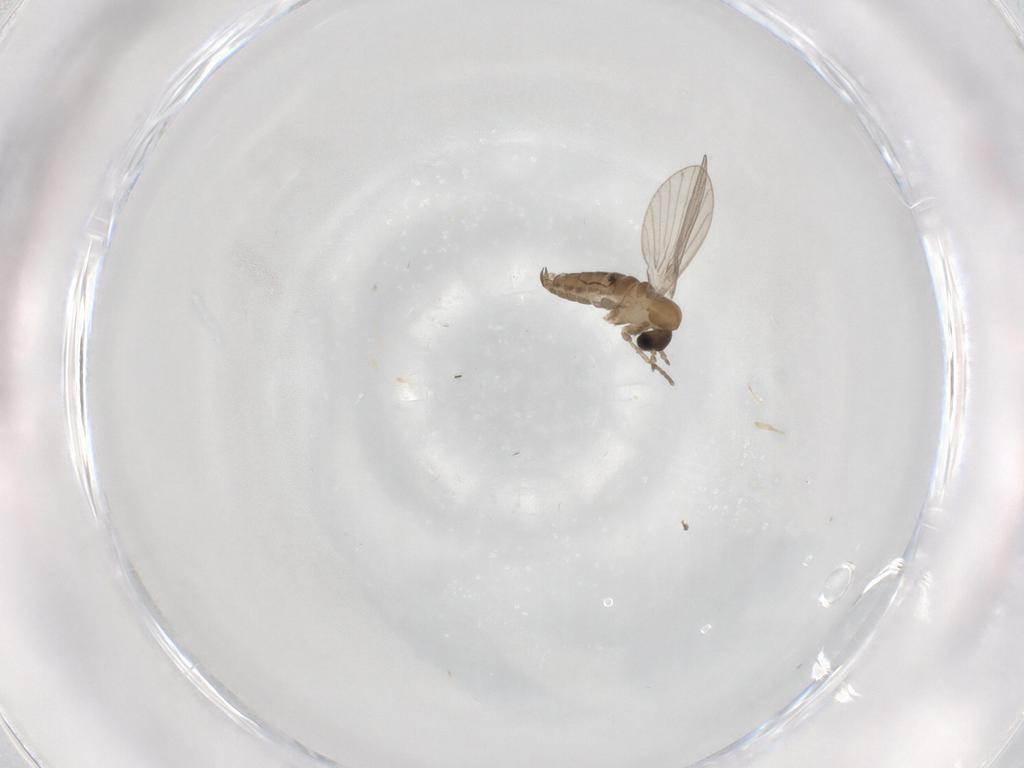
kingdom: Animalia
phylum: Arthropoda
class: Insecta
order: Diptera
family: Psychodidae
